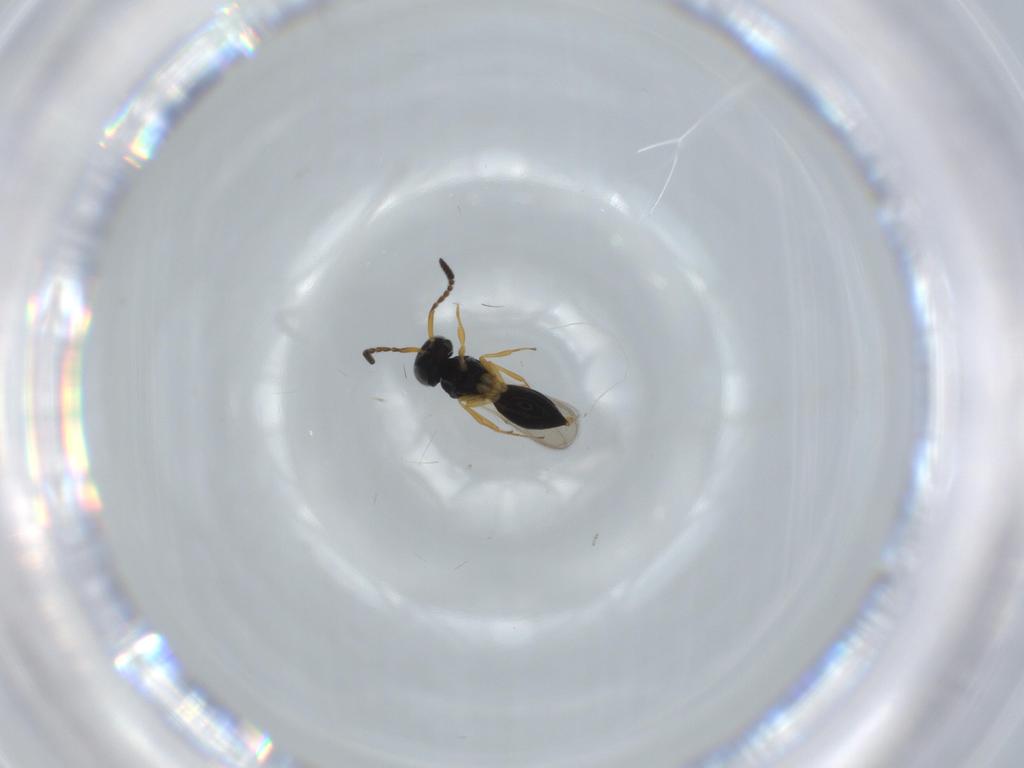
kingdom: Animalia
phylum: Arthropoda
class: Insecta
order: Hymenoptera
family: Scelionidae
